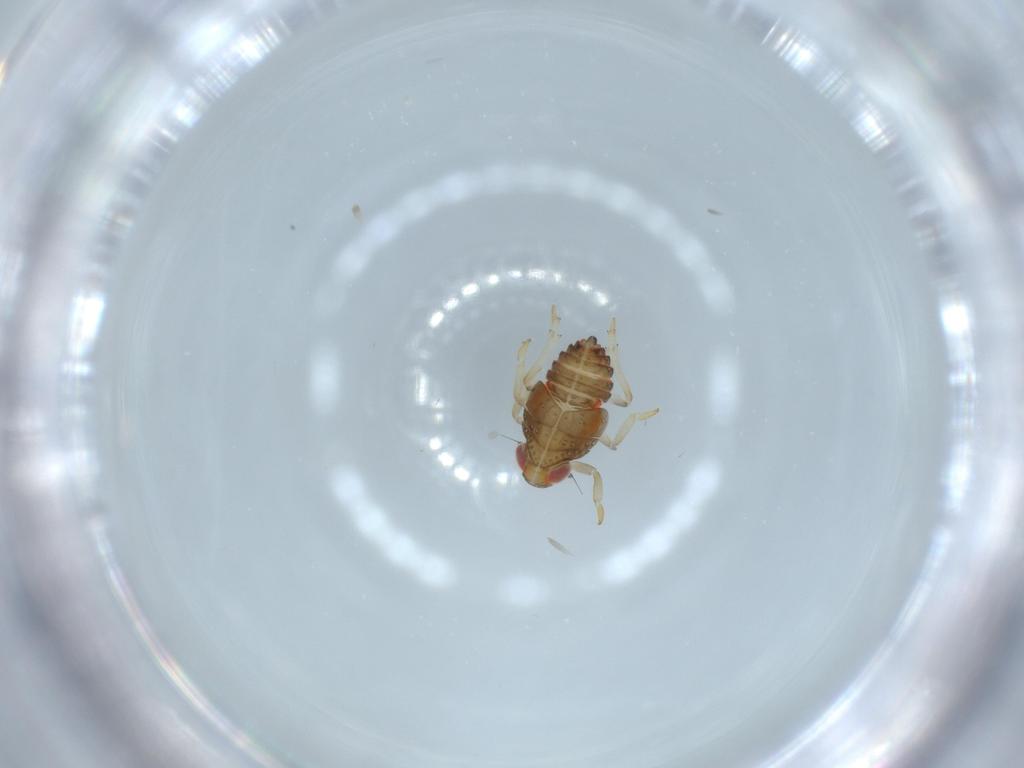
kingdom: Animalia
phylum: Arthropoda
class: Insecta
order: Hemiptera
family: Issidae
